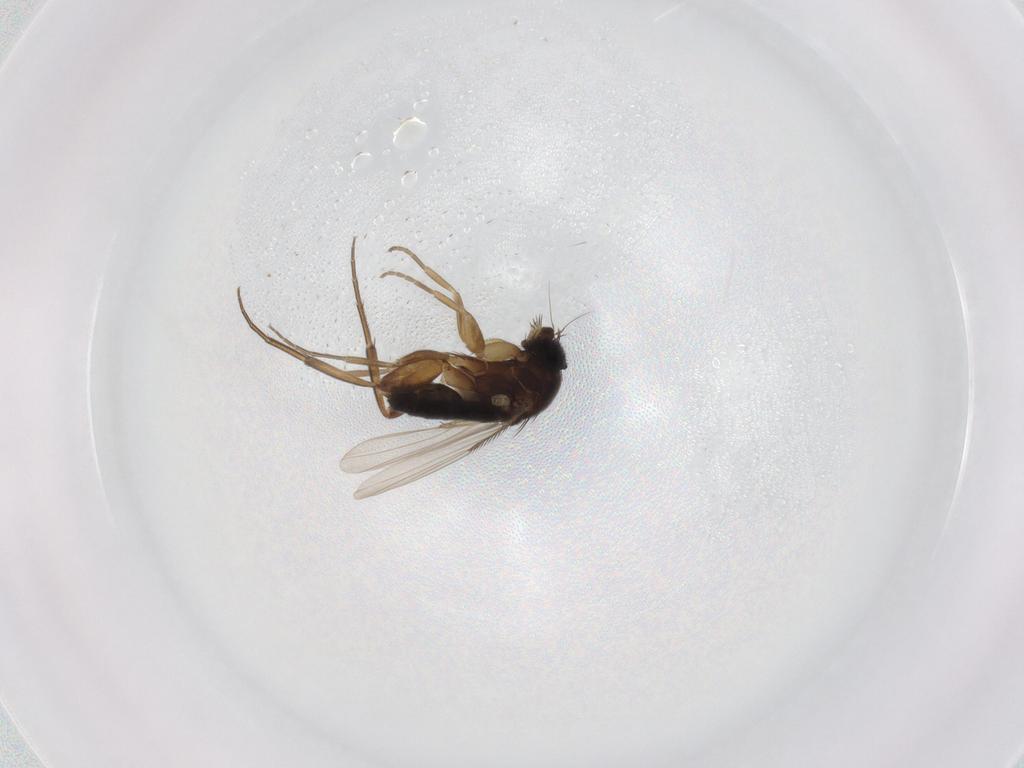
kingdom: Animalia
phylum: Arthropoda
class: Insecta
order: Diptera
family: Phoridae
